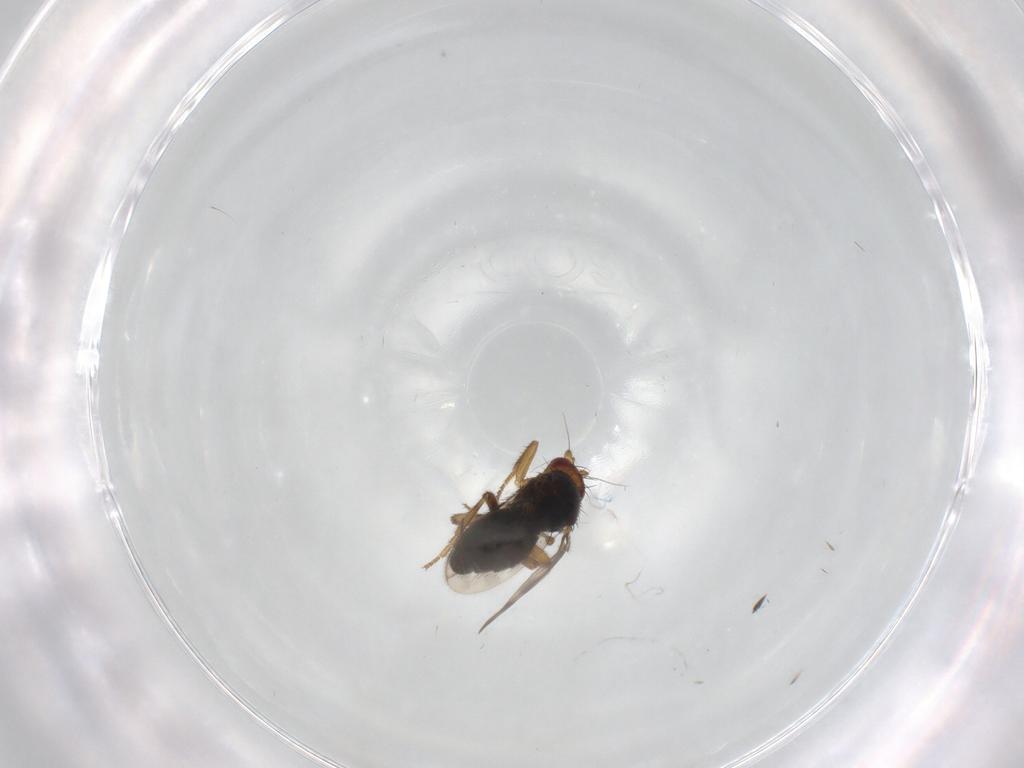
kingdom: Animalia
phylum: Arthropoda
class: Insecta
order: Diptera
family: Sphaeroceridae
